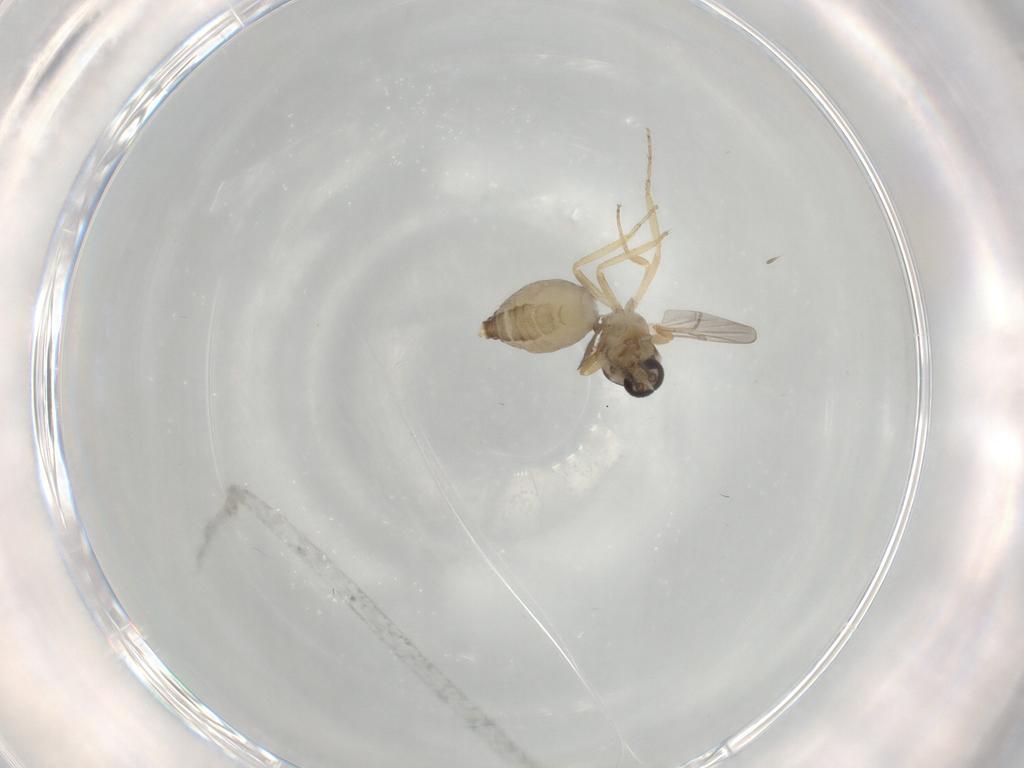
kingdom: Animalia
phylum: Arthropoda
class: Insecta
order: Diptera
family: Ceratopogonidae
